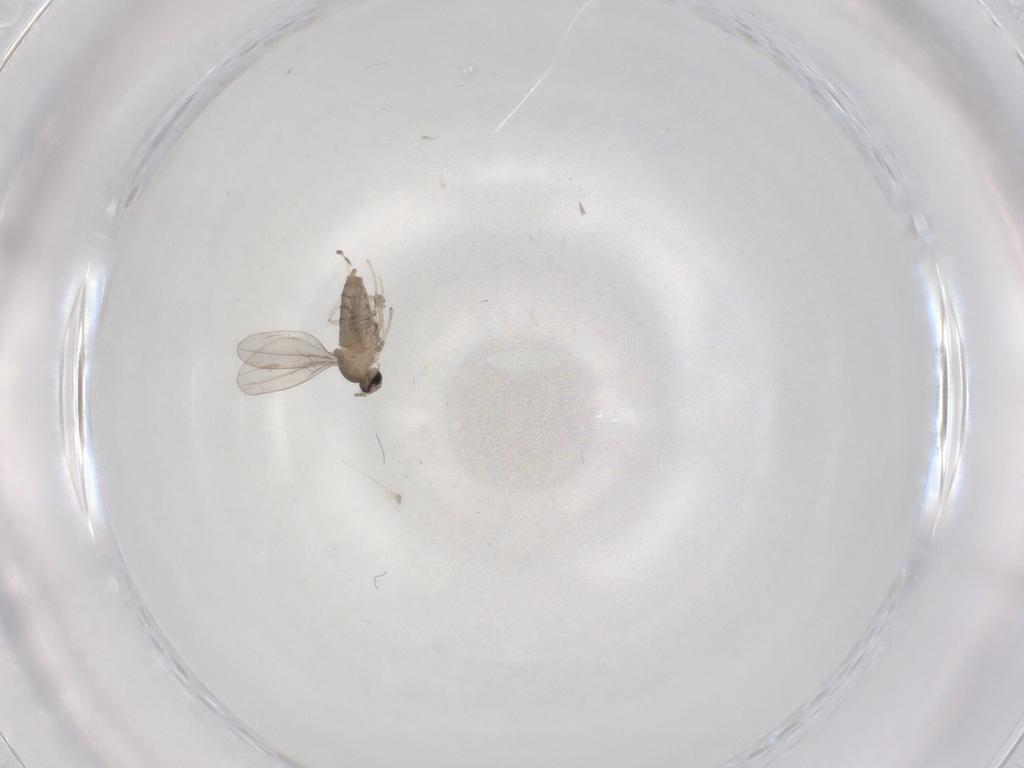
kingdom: Animalia
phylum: Arthropoda
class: Insecta
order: Diptera
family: Cecidomyiidae
